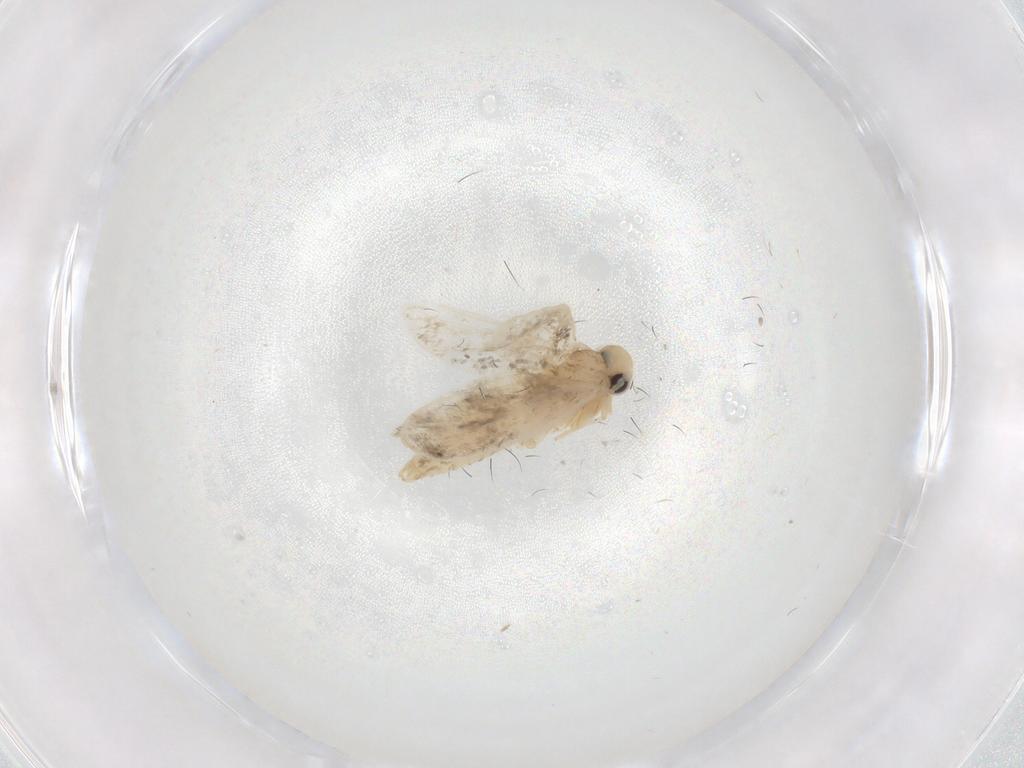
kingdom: Animalia
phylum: Arthropoda
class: Insecta
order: Lepidoptera
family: Psychidae
